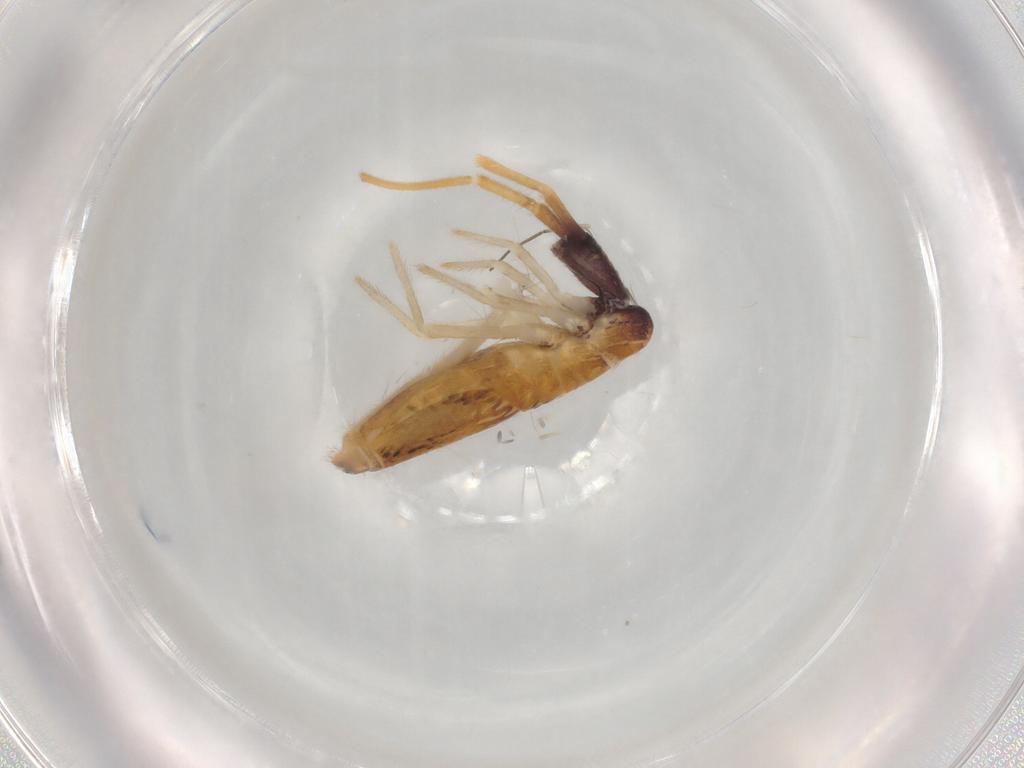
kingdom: Animalia
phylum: Arthropoda
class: Collembola
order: Entomobryomorpha
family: Entomobryidae
